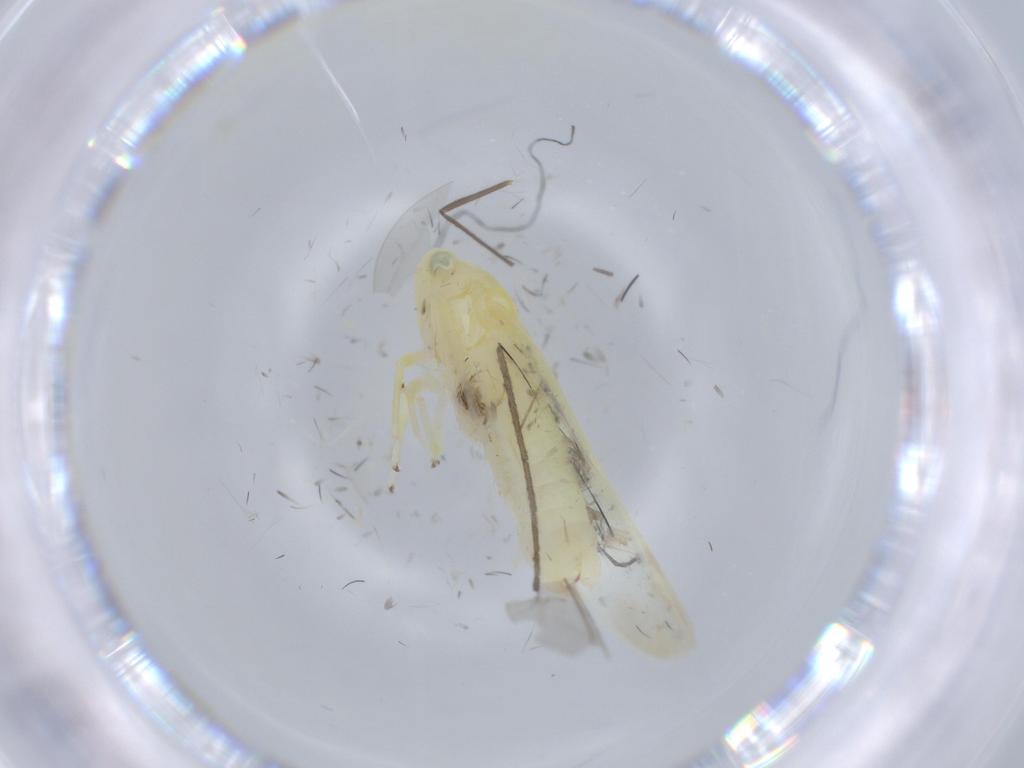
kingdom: Animalia
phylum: Arthropoda
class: Insecta
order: Hemiptera
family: Cicadellidae
